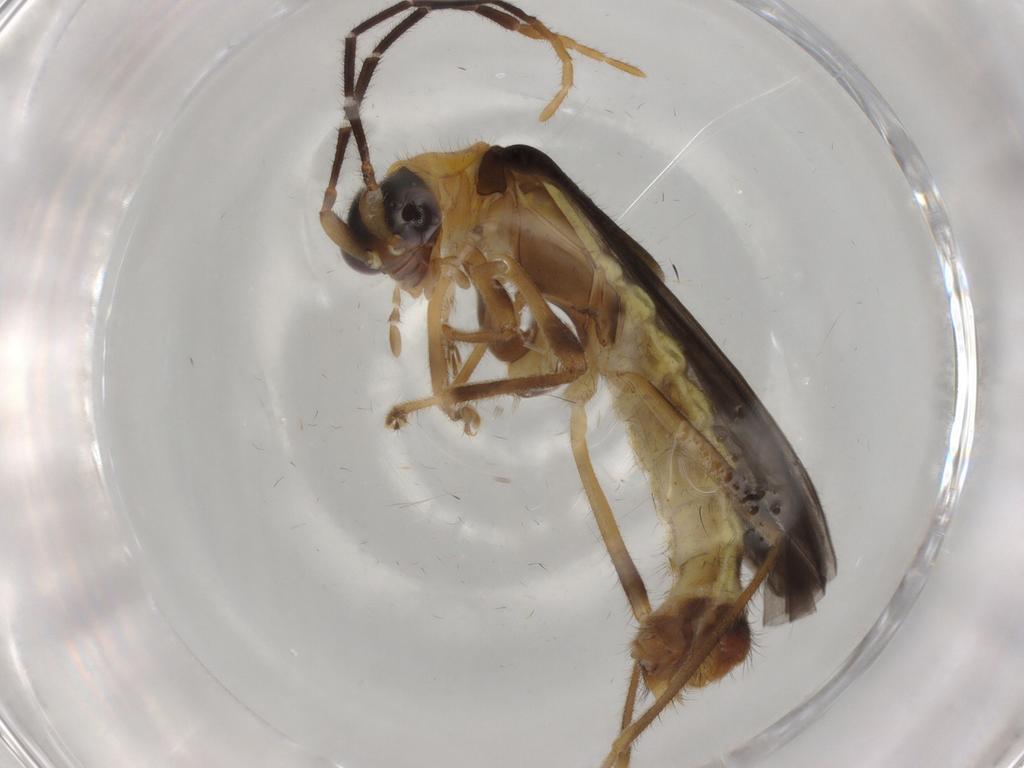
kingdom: Animalia
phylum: Arthropoda
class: Insecta
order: Coleoptera
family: Cantharidae
